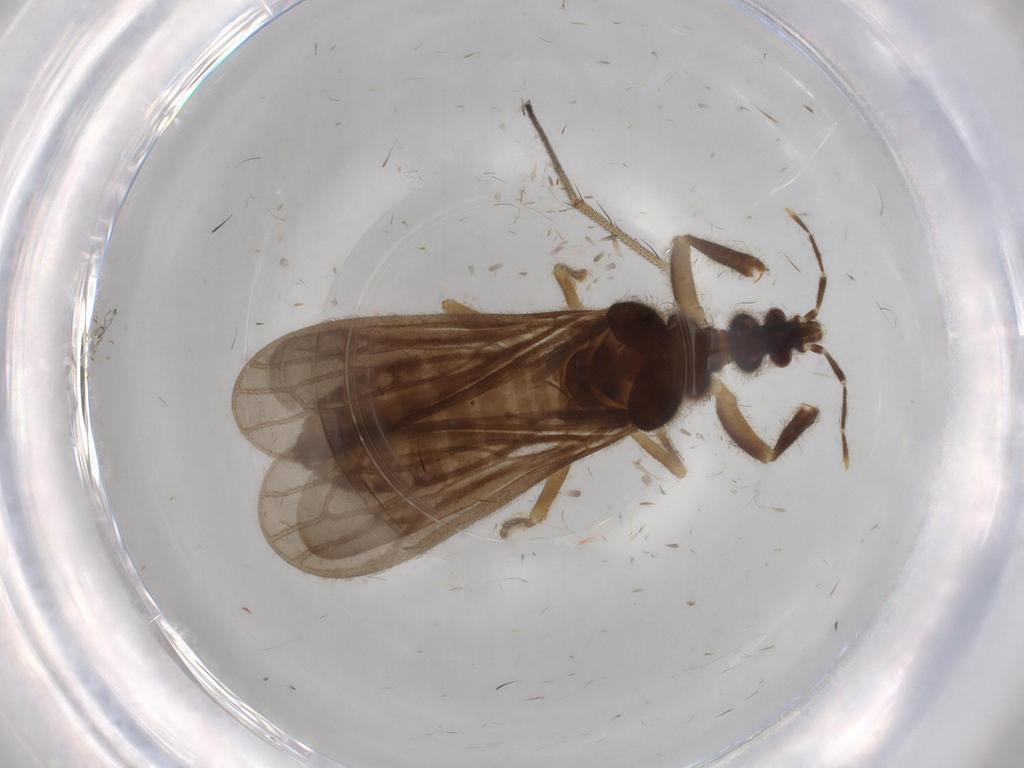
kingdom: Animalia
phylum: Arthropoda
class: Insecta
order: Hemiptera
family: Enicocephalidae
